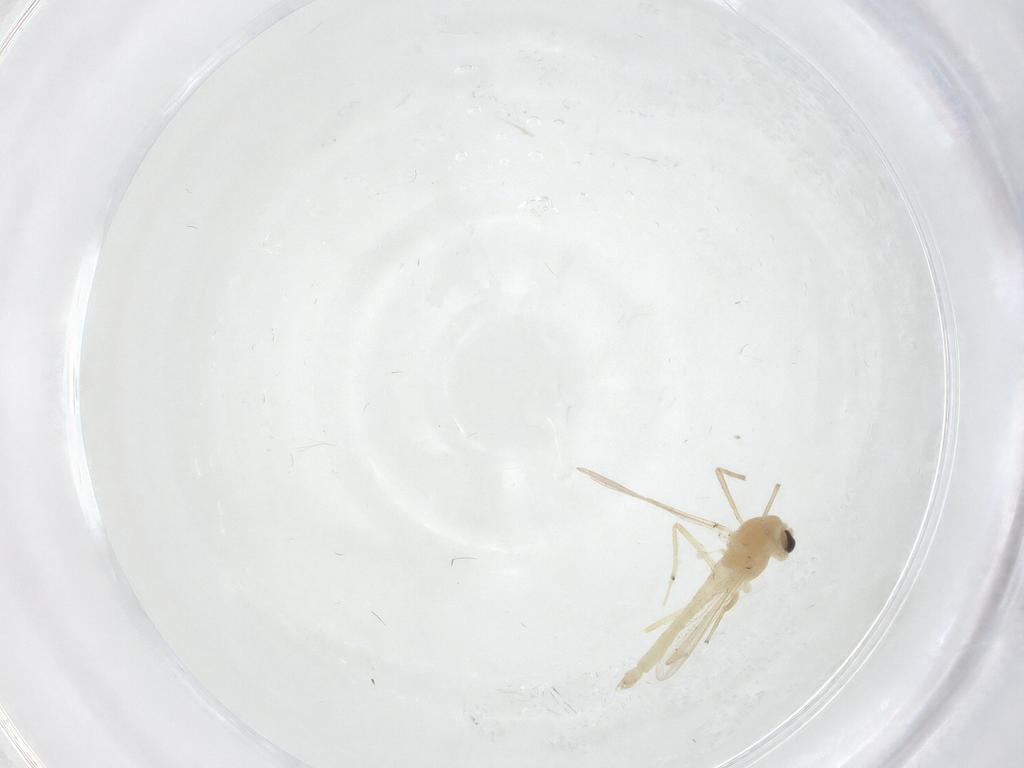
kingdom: Animalia
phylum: Arthropoda
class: Insecta
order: Diptera
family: Chironomidae
